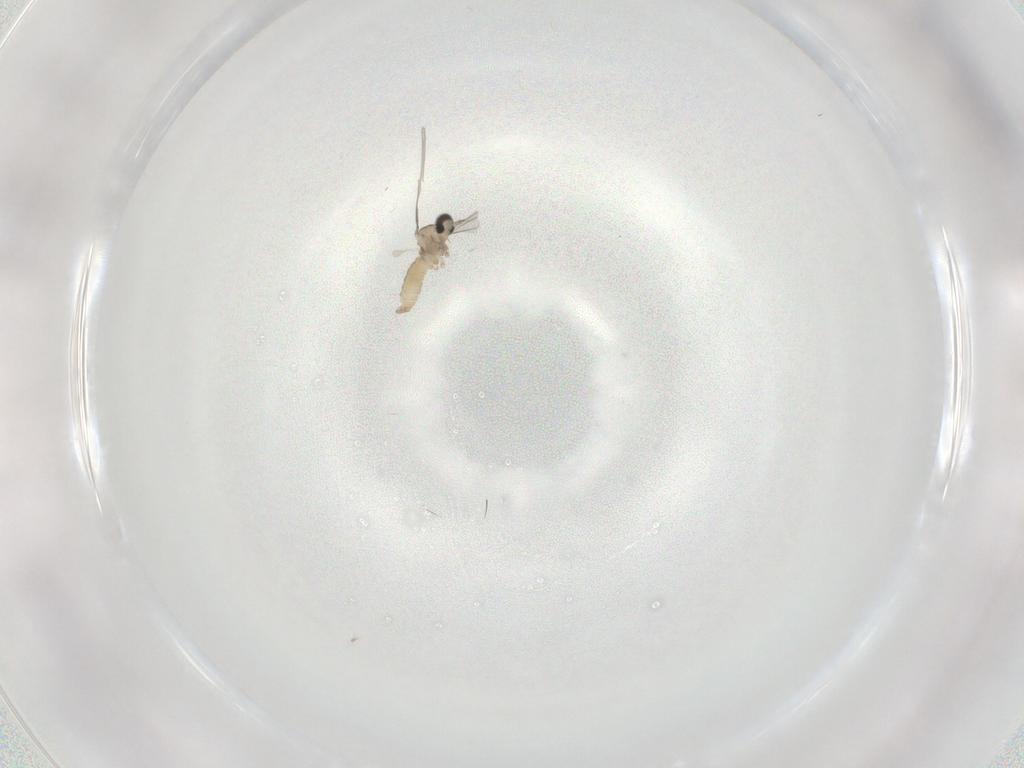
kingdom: Animalia
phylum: Arthropoda
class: Insecta
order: Diptera
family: Cecidomyiidae
